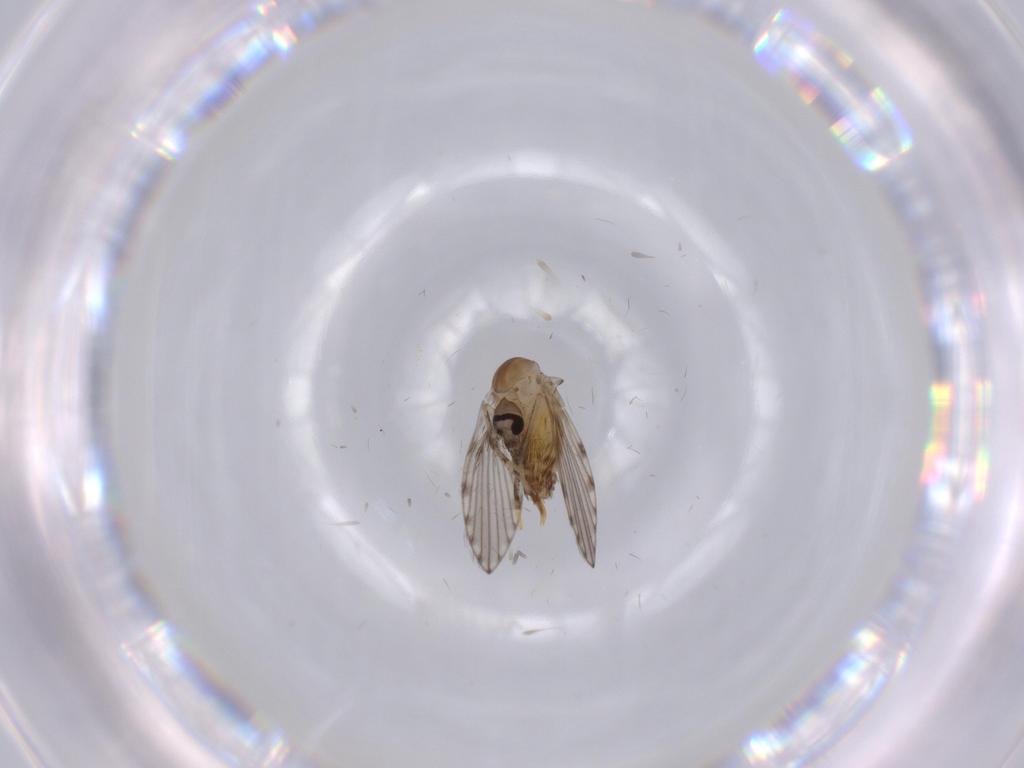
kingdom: Animalia
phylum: Arthropoda
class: Insecta
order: Diptera
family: Psychodidae
